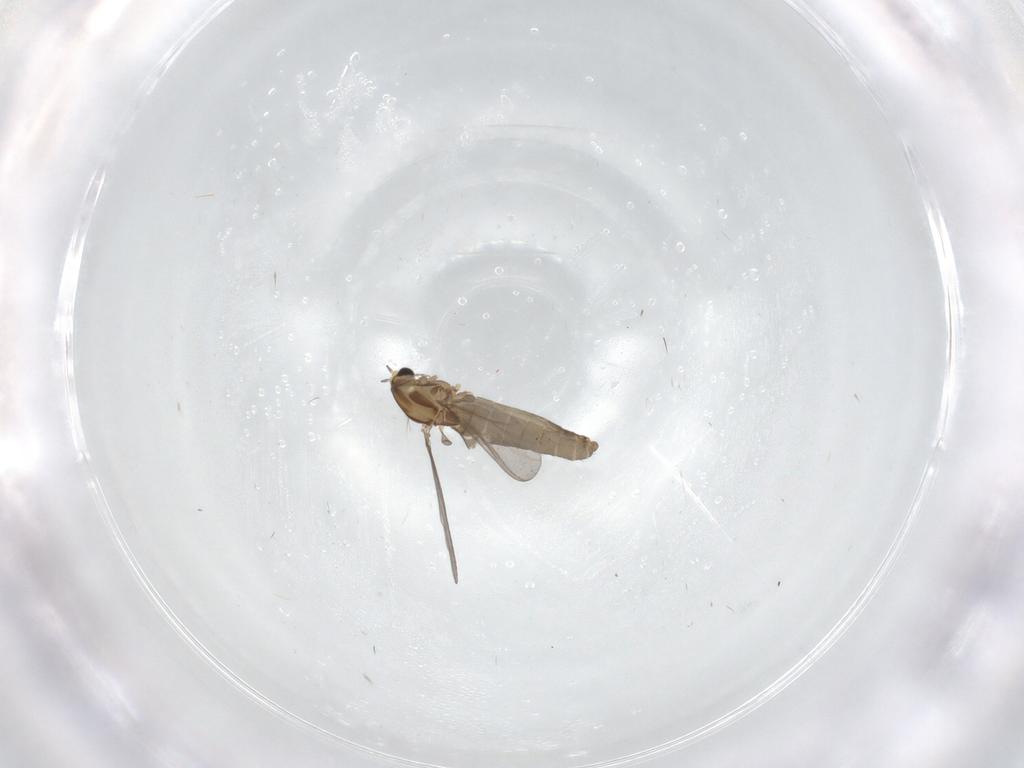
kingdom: Animalia
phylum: Arthropoda
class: Insecta
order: Diptera
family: Phoridae
